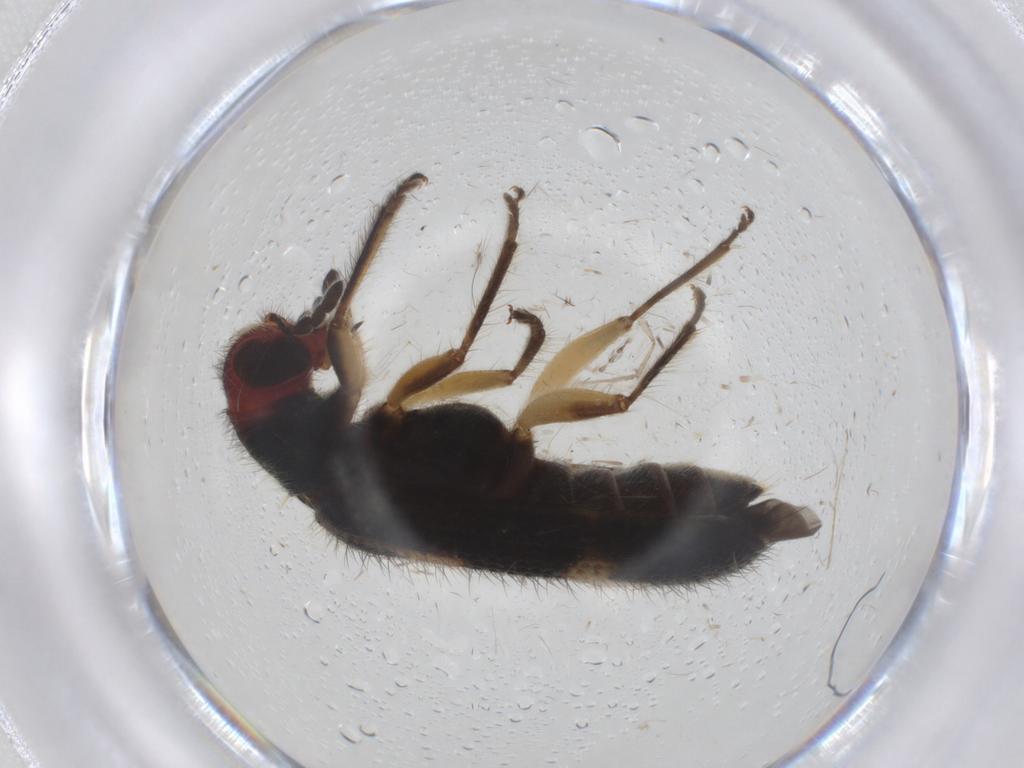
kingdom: Animalia
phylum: Arthropoda
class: Insecta
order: Coleoptera
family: Cleridae
